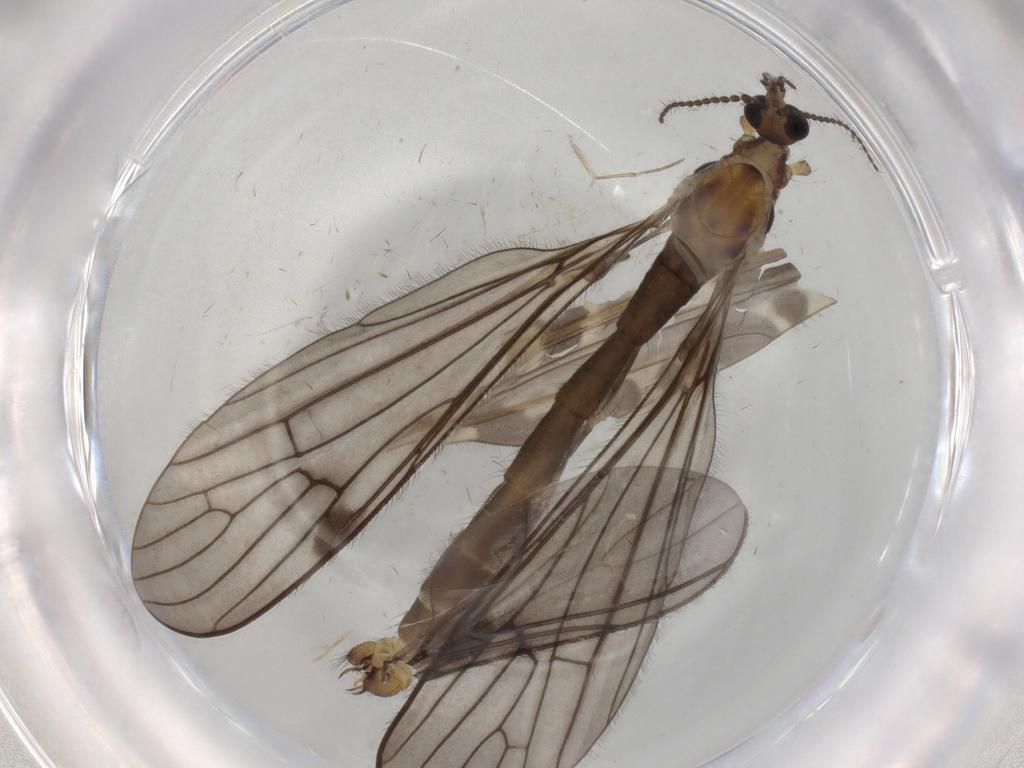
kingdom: Animalia
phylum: Arthropoda
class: Insecta
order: Diptera
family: Limoniidae
